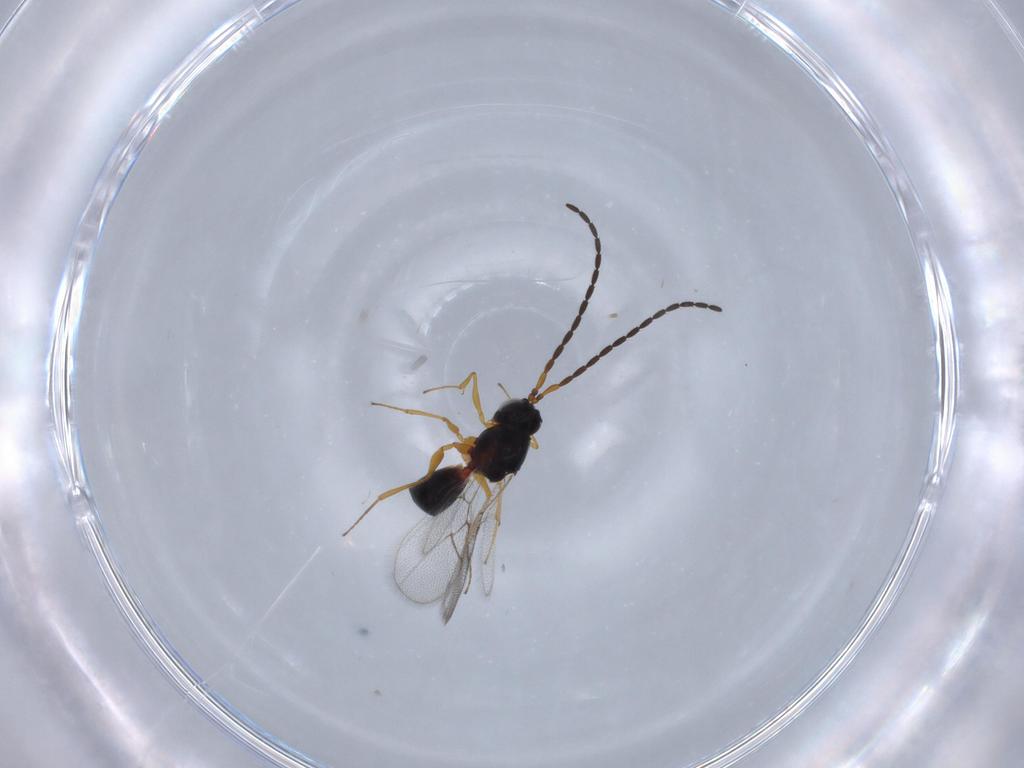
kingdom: Animalia
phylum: Arthropoda
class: Insecta
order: Hymenoptera
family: Figitidae
